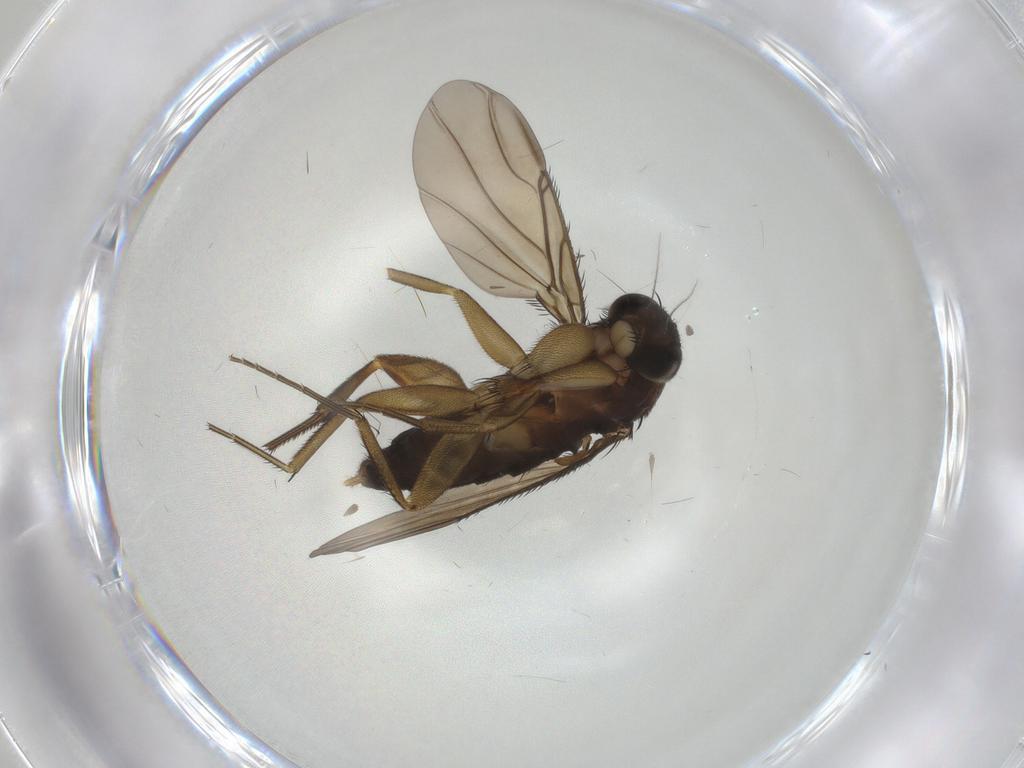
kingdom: Animalia
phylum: Arthropoda
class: Insecta
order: Diptera
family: Phoridae
